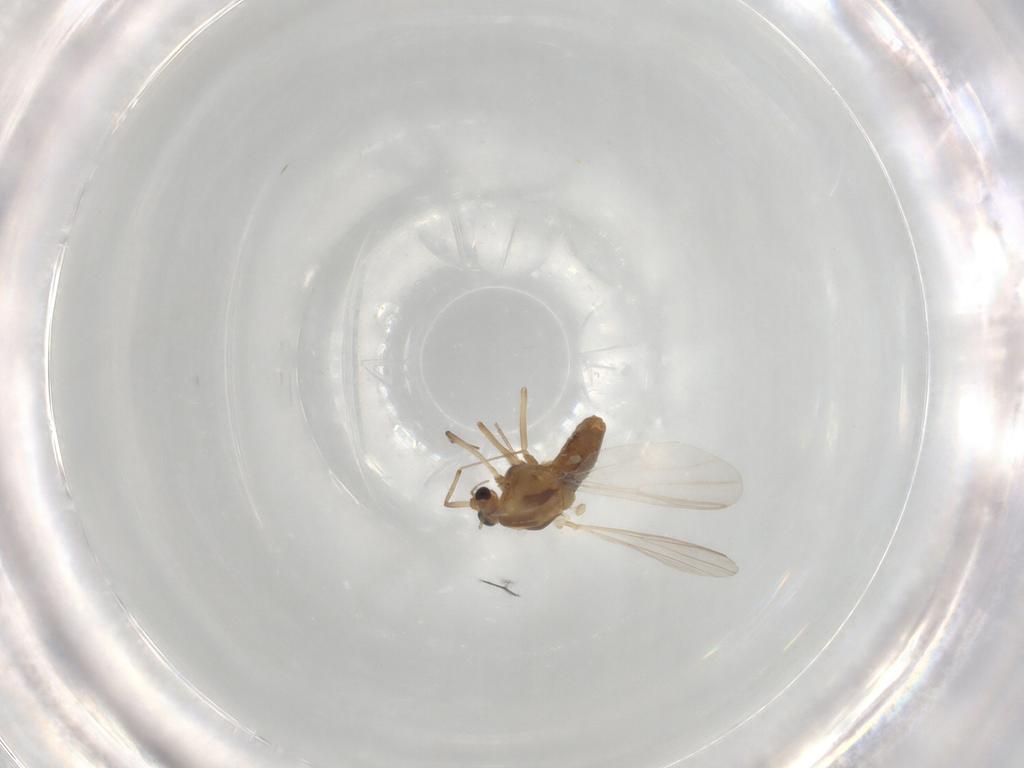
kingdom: Animalia
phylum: Arthropoda
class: Insecta
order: Diptera
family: Chironomidae
